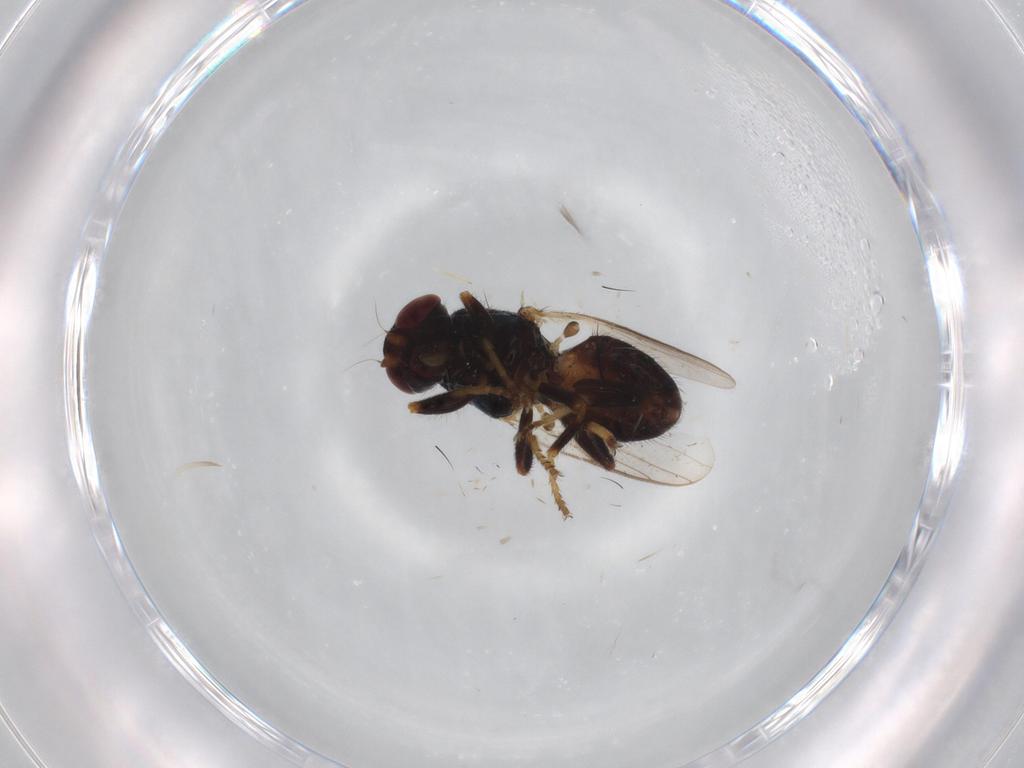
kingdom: Animalia
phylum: Arthropoda
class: Insecta
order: Diptera
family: Chloropidae
